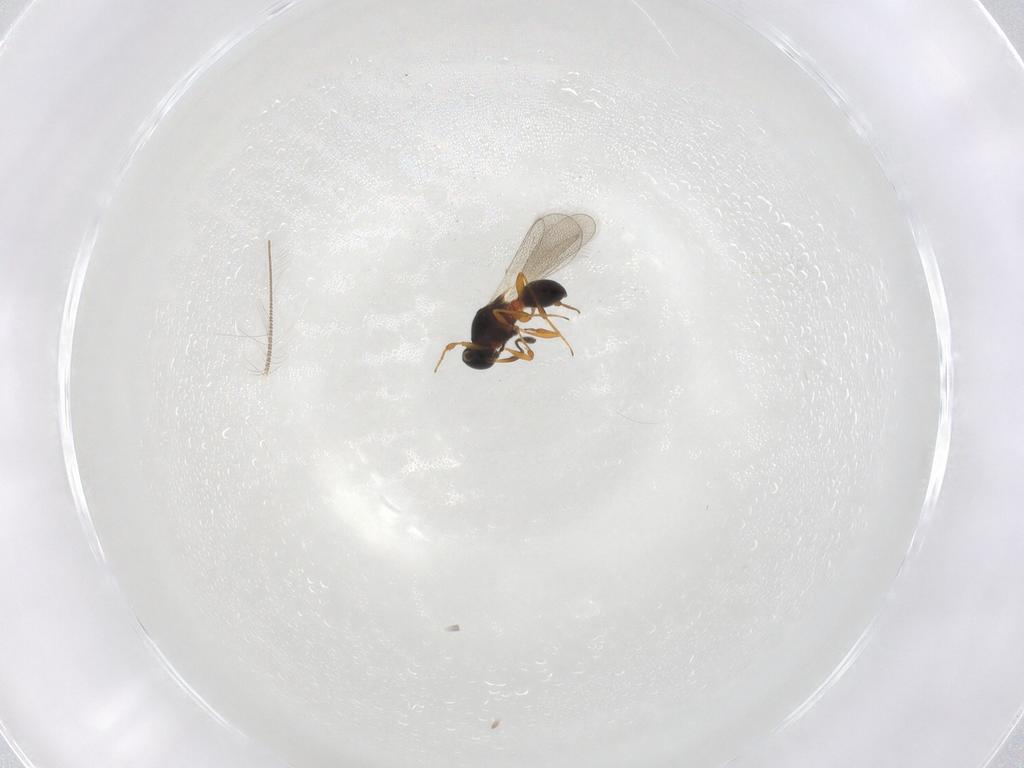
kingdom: Animalia
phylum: Arthropoda
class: Insecta
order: Hymenoptera
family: Platygastridae
